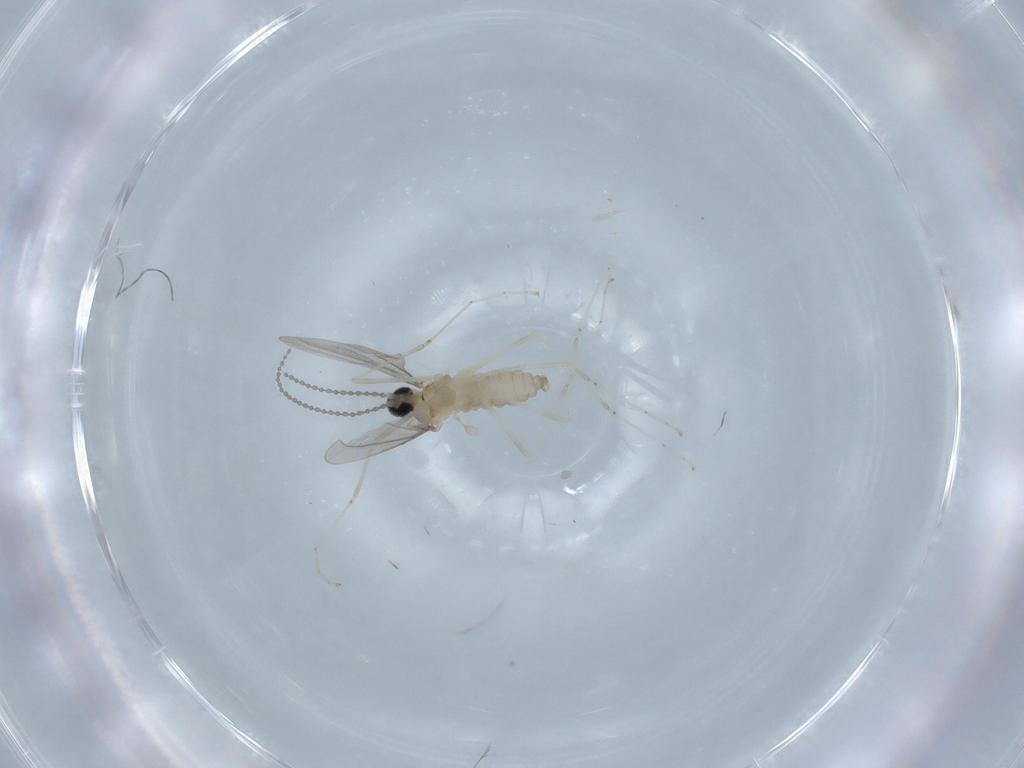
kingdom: Animalia
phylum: Arthropoda
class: Insecta
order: Diptera
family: Cecidomyiidae
